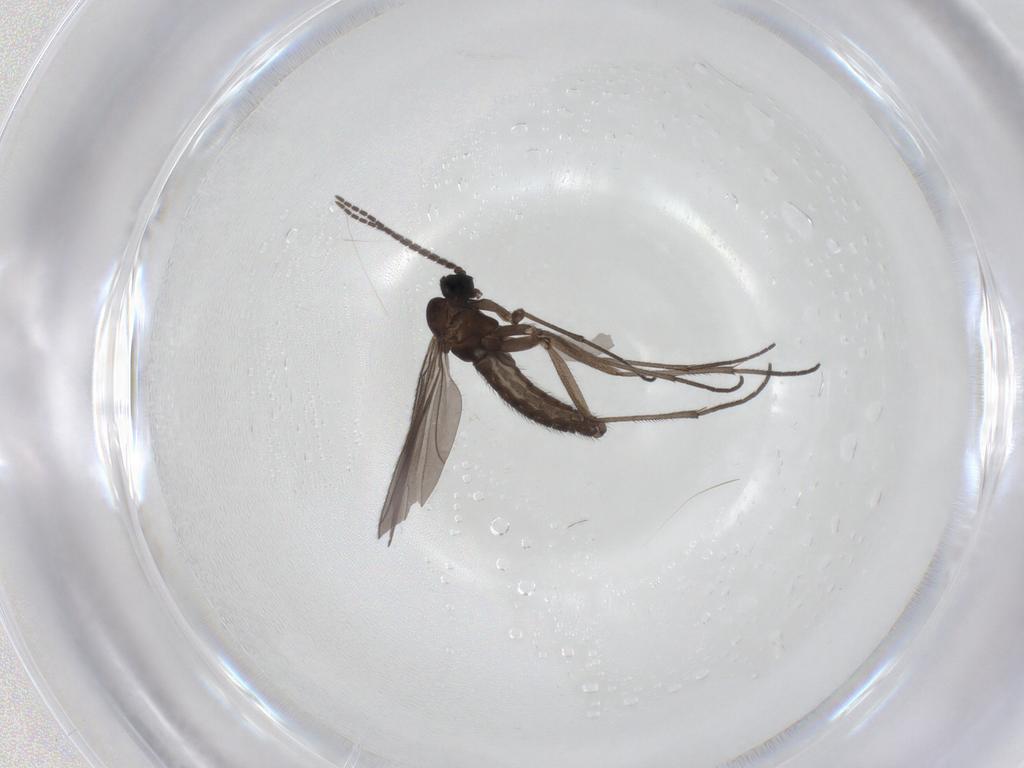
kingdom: Animalia
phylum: Arthropoda
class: Insecta
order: Diptera
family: Sciaridae
